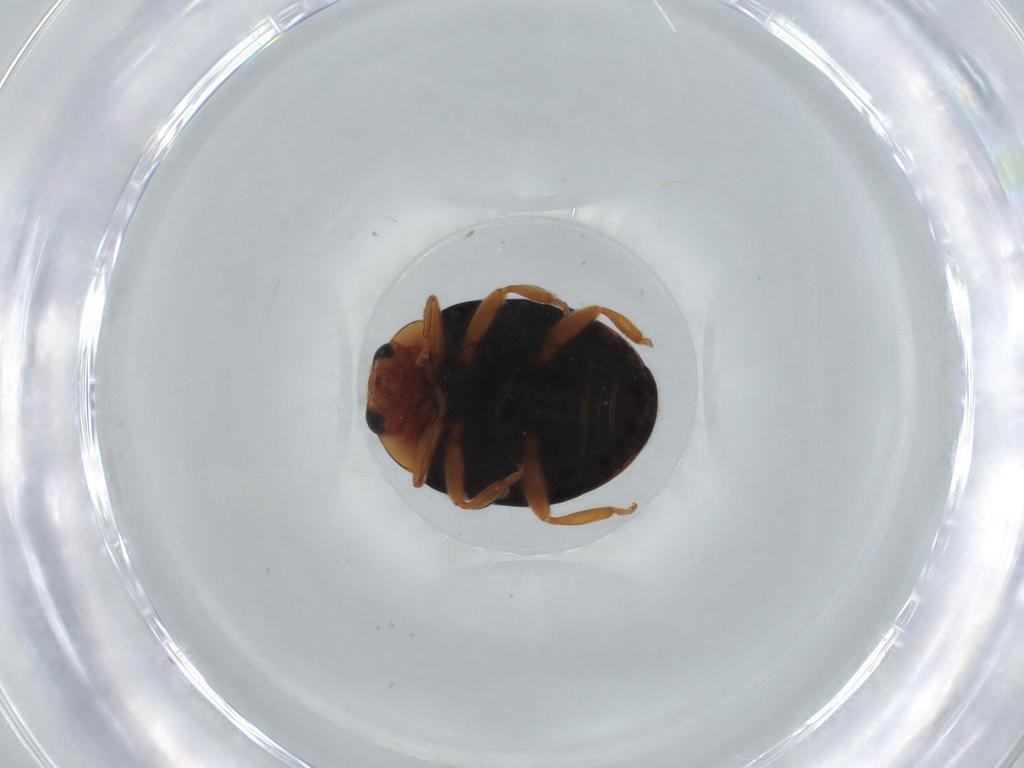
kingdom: Animalia
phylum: Arthropoda
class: Insecta
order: Coleoptera
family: Coccinellidae
